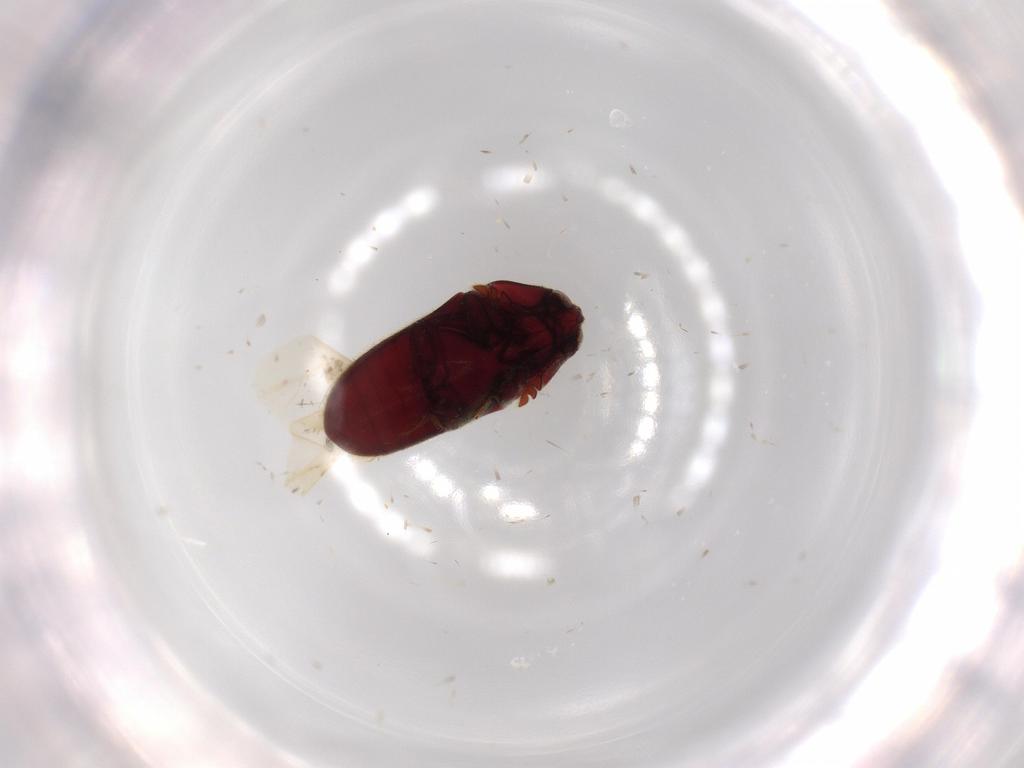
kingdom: Animalia
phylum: Arthropoda
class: Insecta
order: Coleoptera
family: Throscidae
